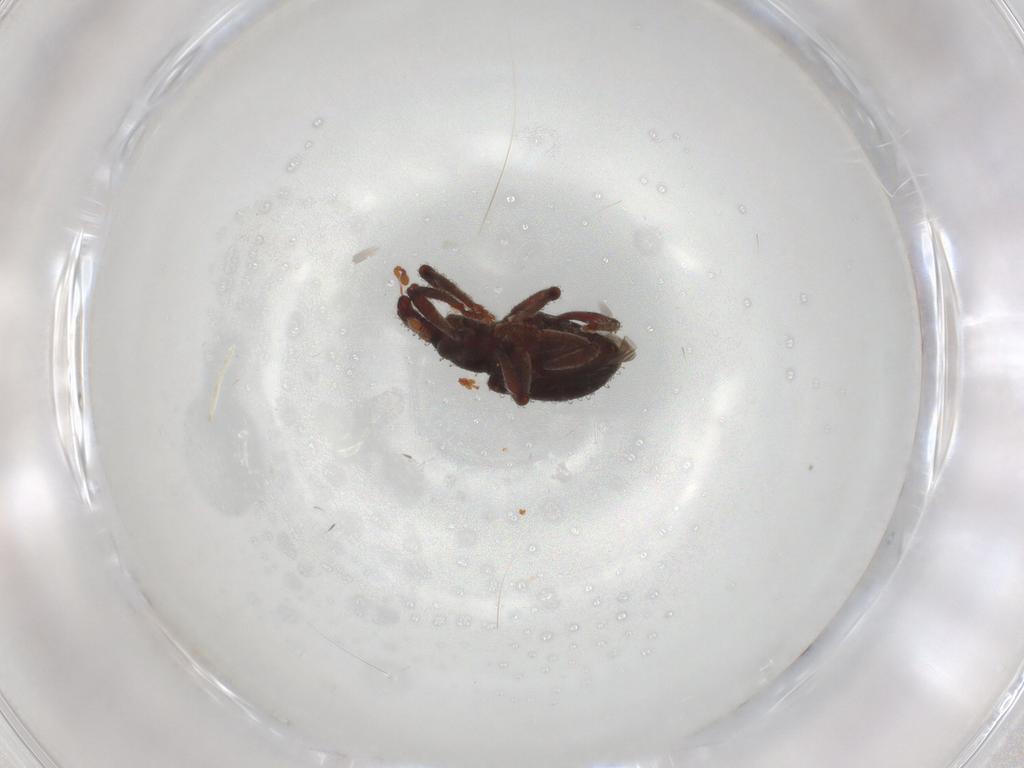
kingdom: Animalia
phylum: Arthropoda
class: Insecta
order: Coleoptera
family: Curculionidae
